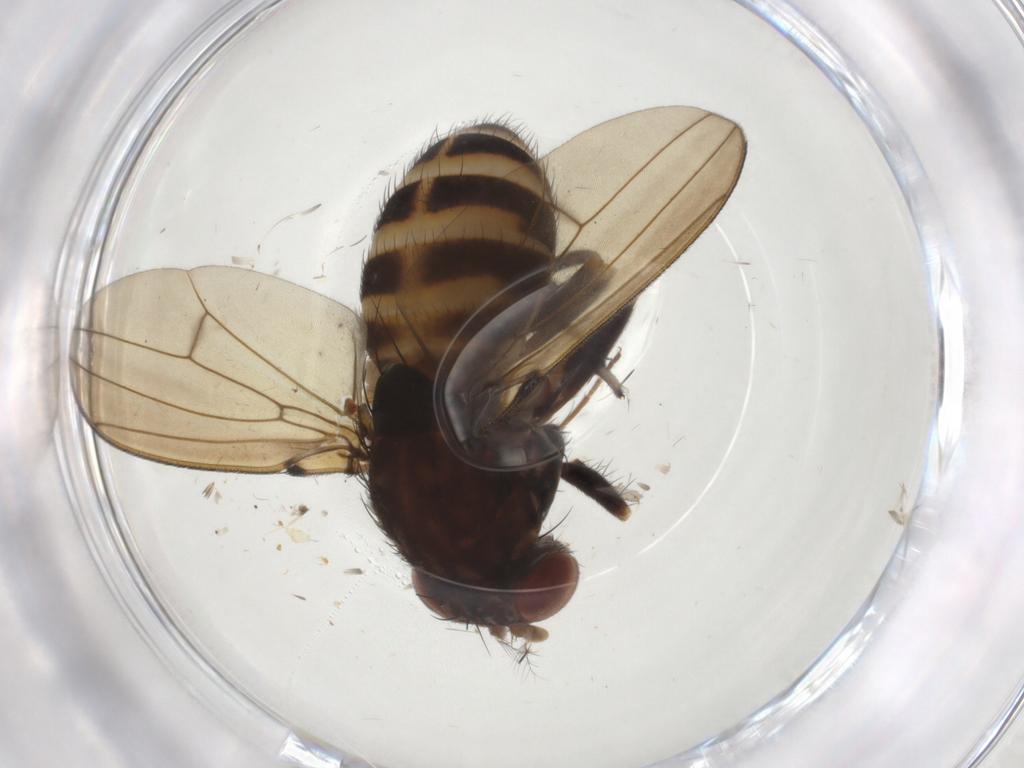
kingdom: Animalia
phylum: Arthropoda
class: Insecta
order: Diptera
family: Drosophilidae
